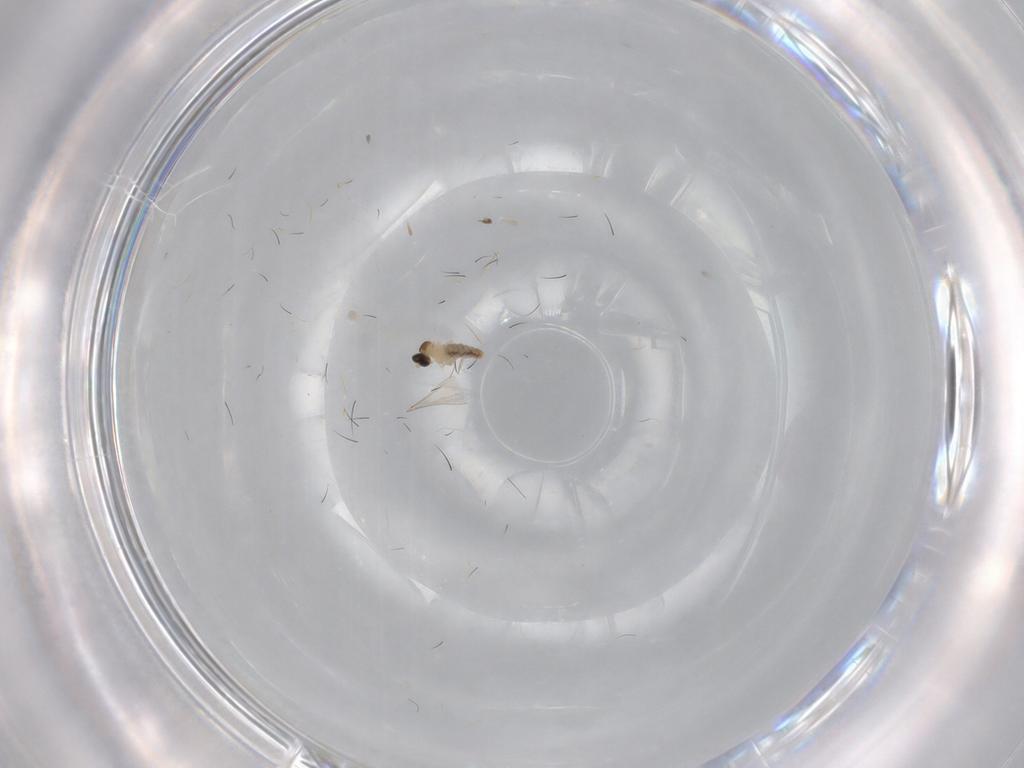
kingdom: Animalia
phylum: Arthropoda
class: Insecta
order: Diptera
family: Cecidomyiidae
